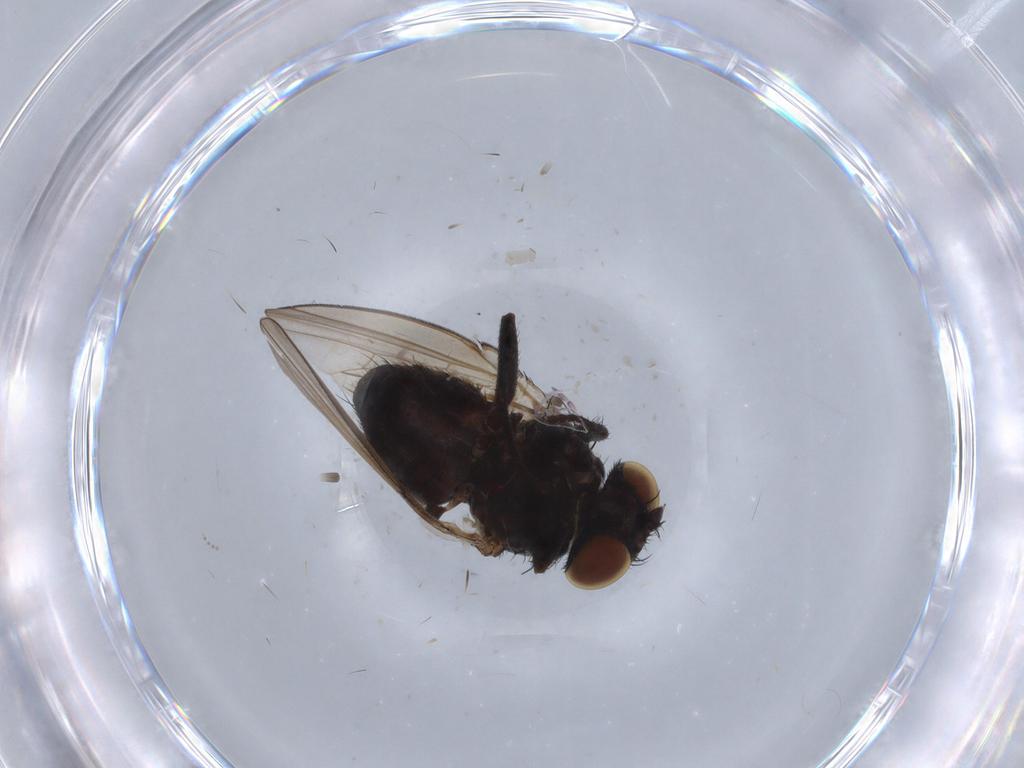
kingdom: Animalia
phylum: Arthropoda
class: Insecta
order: Diptera
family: Milichiidae
